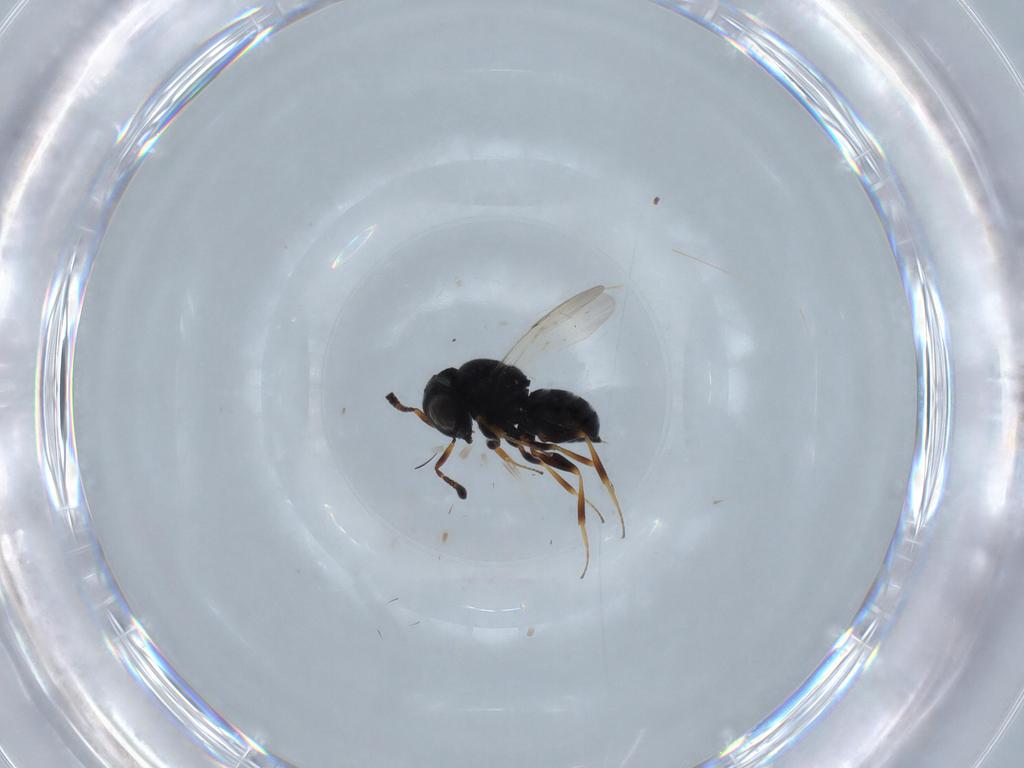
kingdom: Animalia
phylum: Arthropoda
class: Insecta
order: Hymenoptera
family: Scelionidae
